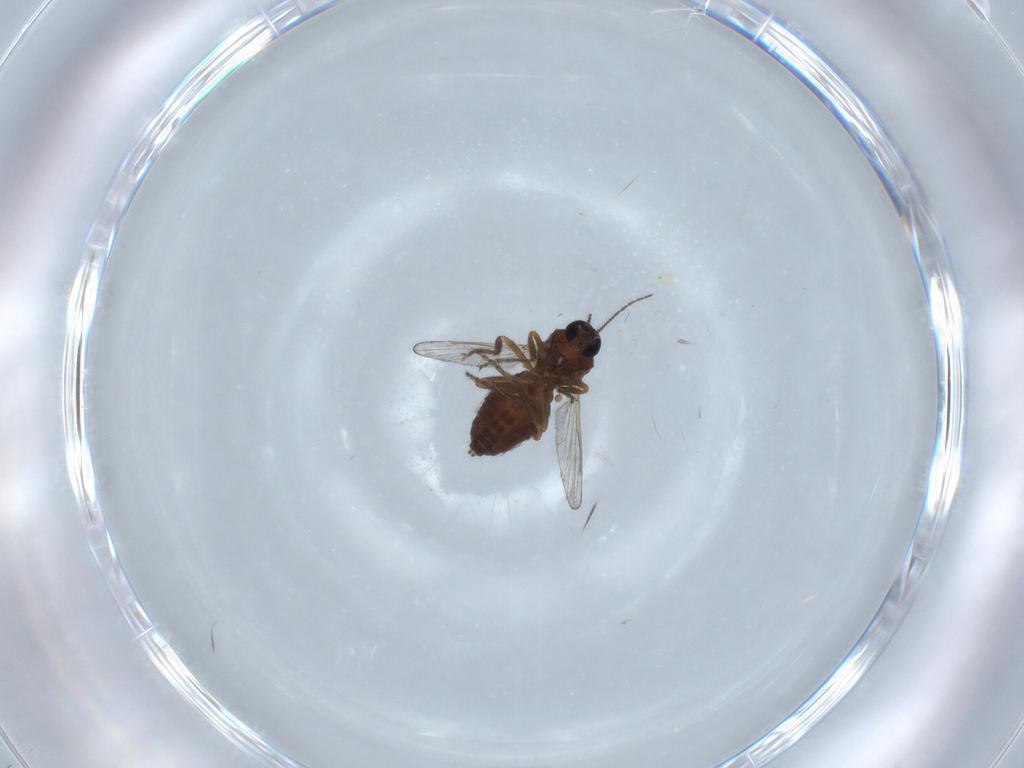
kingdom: Animalia
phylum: Arthropoda
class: Insecta
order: Diptera
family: Ceratopogonidae
